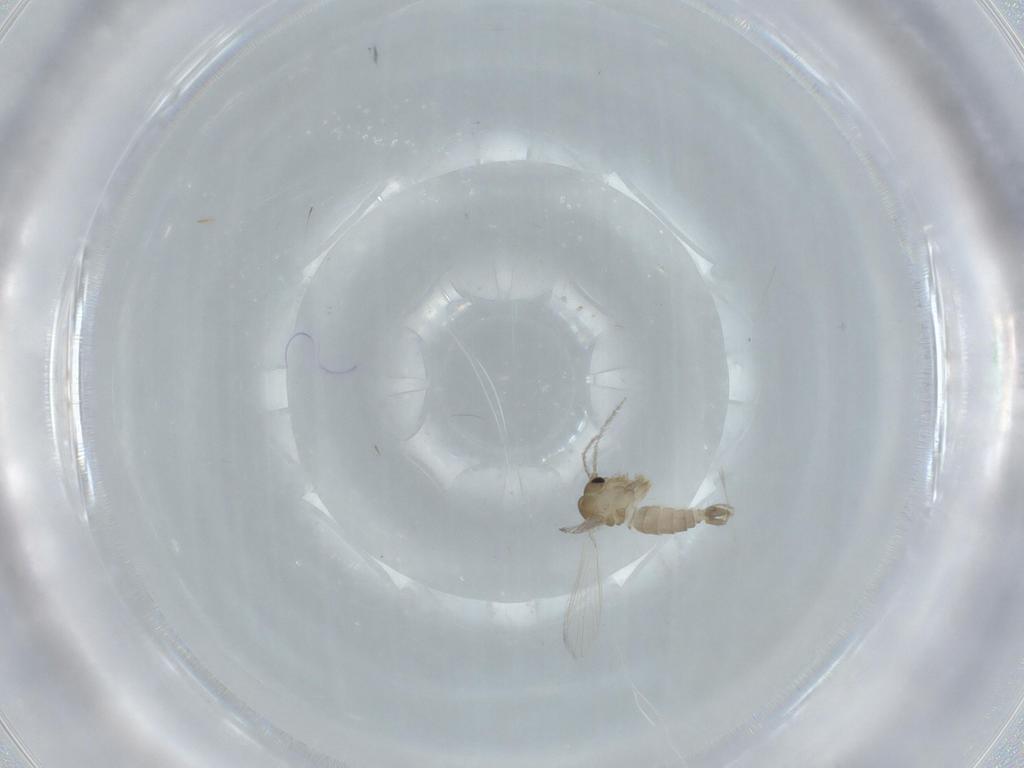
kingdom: Animalia
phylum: Arthropoda
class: Insecta
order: Diptera
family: Psychodidae
